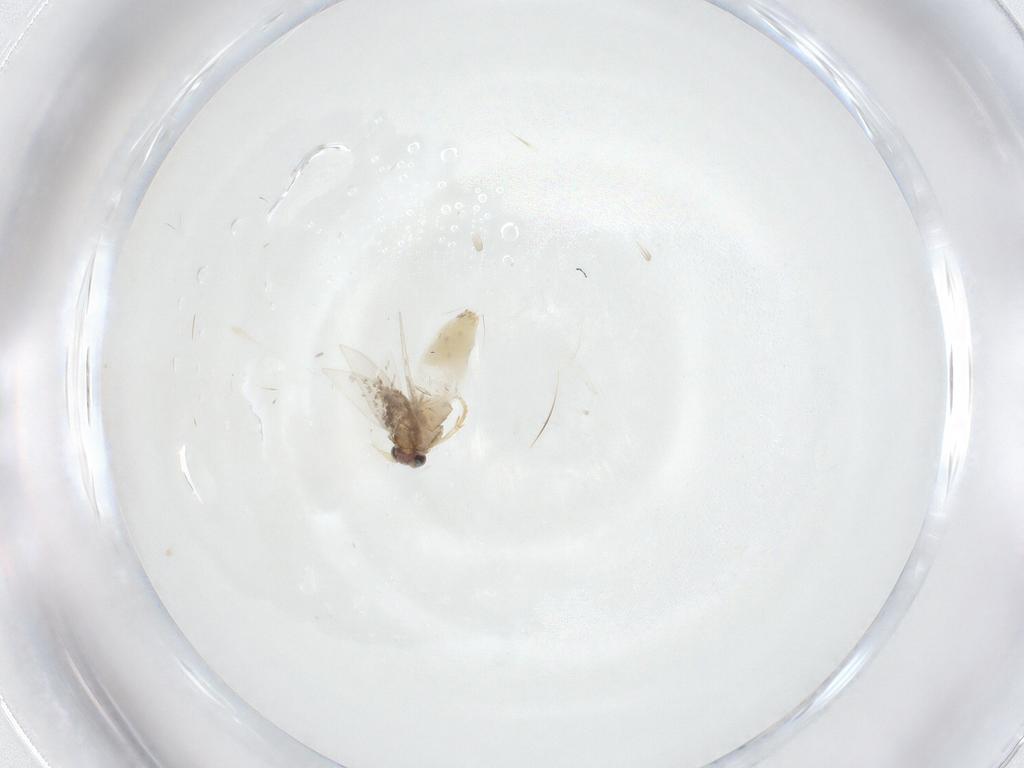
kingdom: Animalia
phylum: Arthropoda
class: Insecta
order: Lepidoptera
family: Nepticulidae
